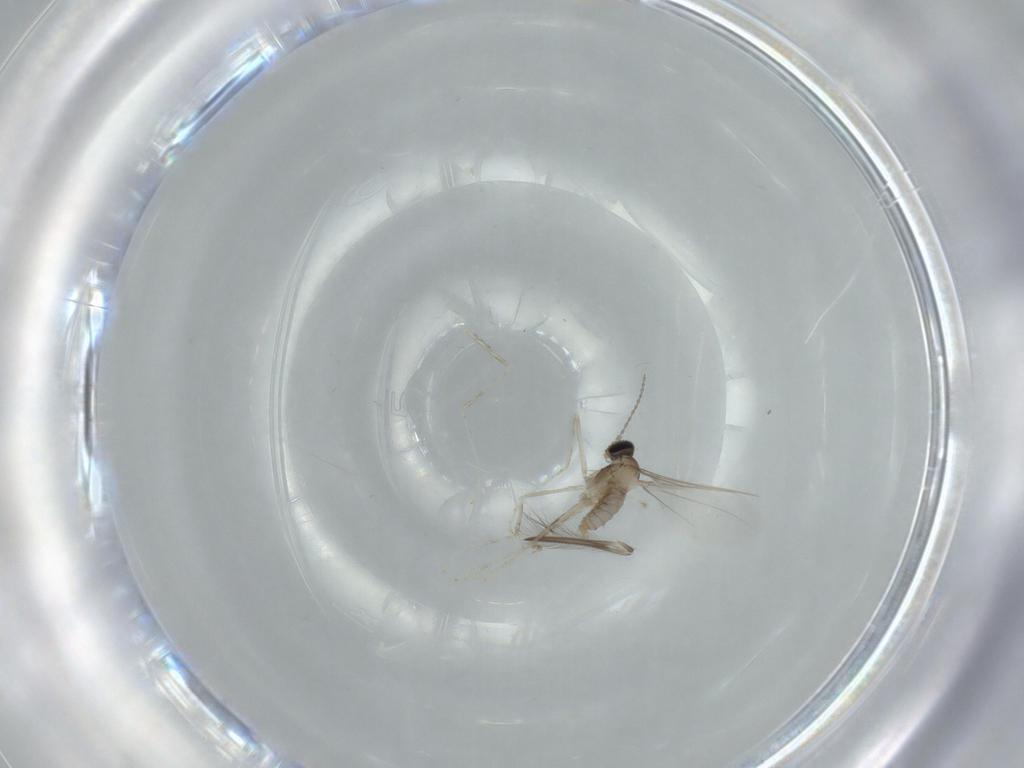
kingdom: Animalia
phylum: Arthropoda
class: Insecta
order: Diptera
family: Cecidomyiidae
